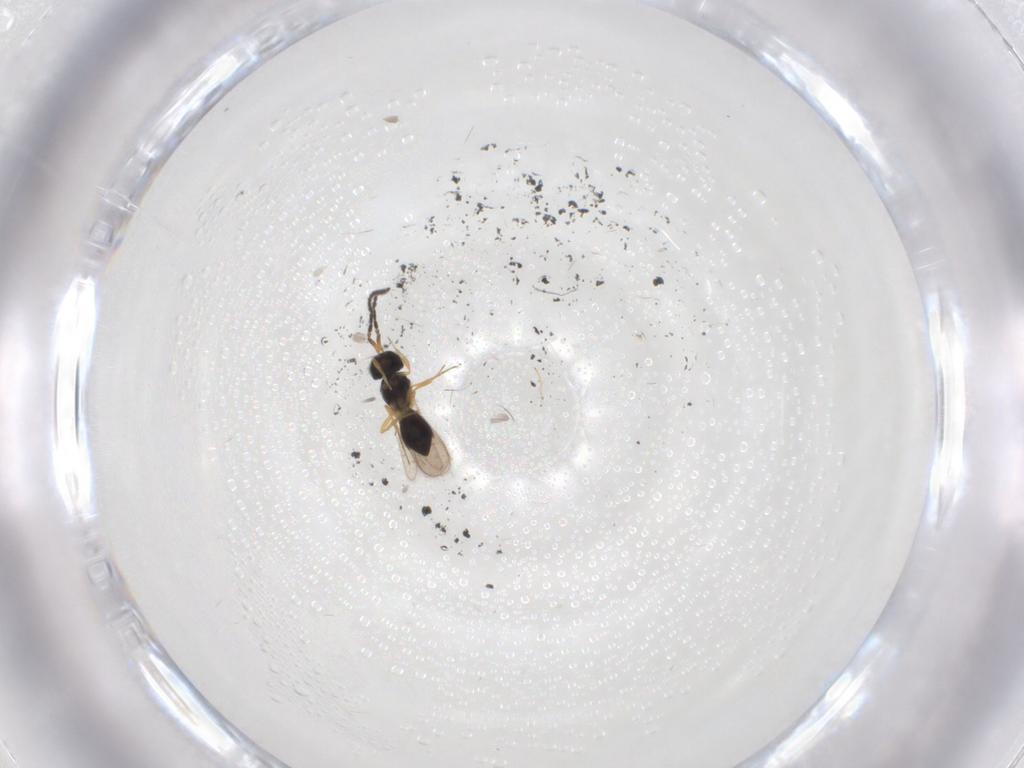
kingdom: Animalia
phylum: Arthropoda
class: Insecta
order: Hymenoptera
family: Scelionidae
